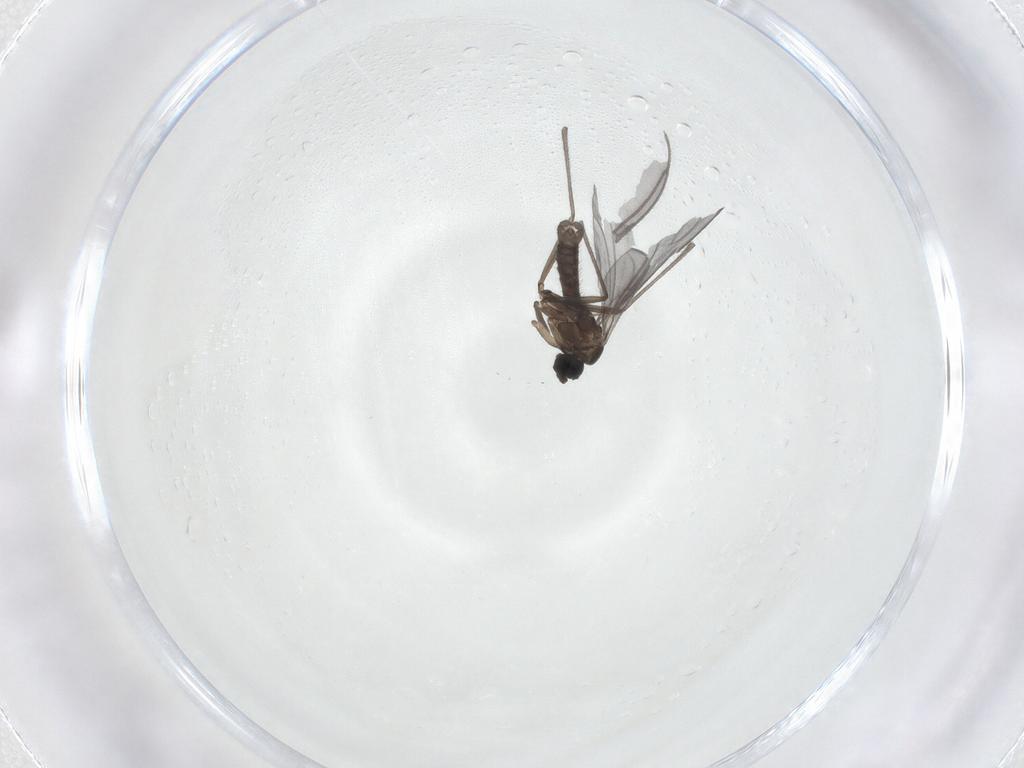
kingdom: Animalia
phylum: Arthropoda
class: Insecta
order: Diptera
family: Sciaridae
